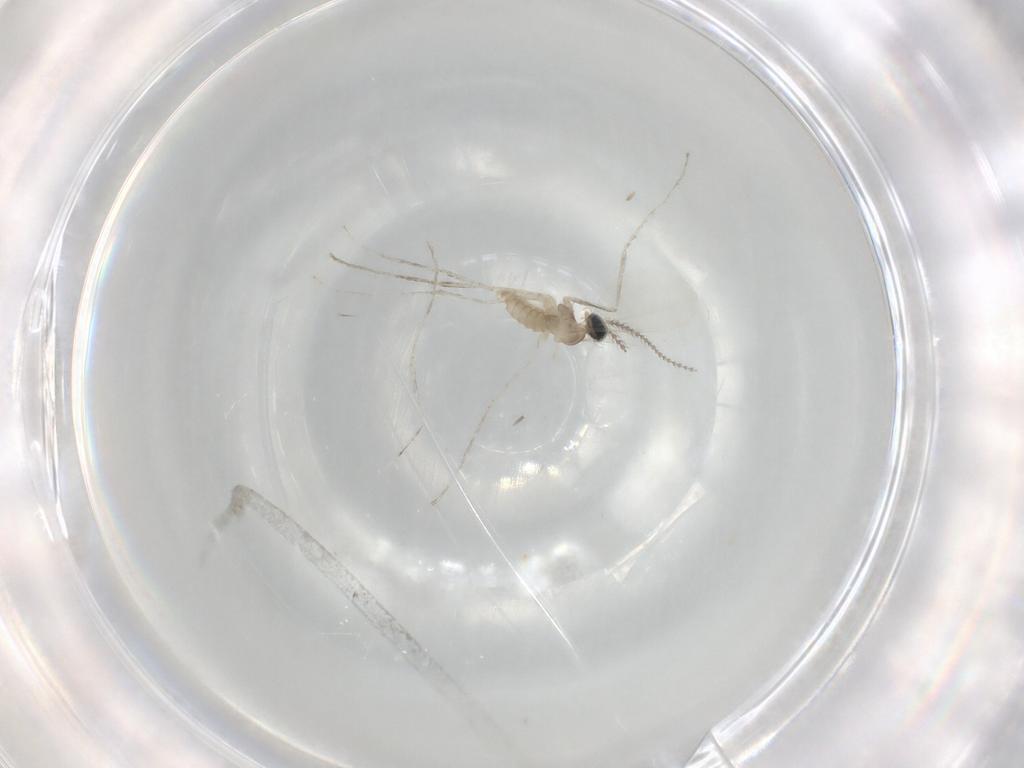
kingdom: Animalia
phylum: Arthropoda
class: Insecta
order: Diptera
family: Cecidomyiidae
